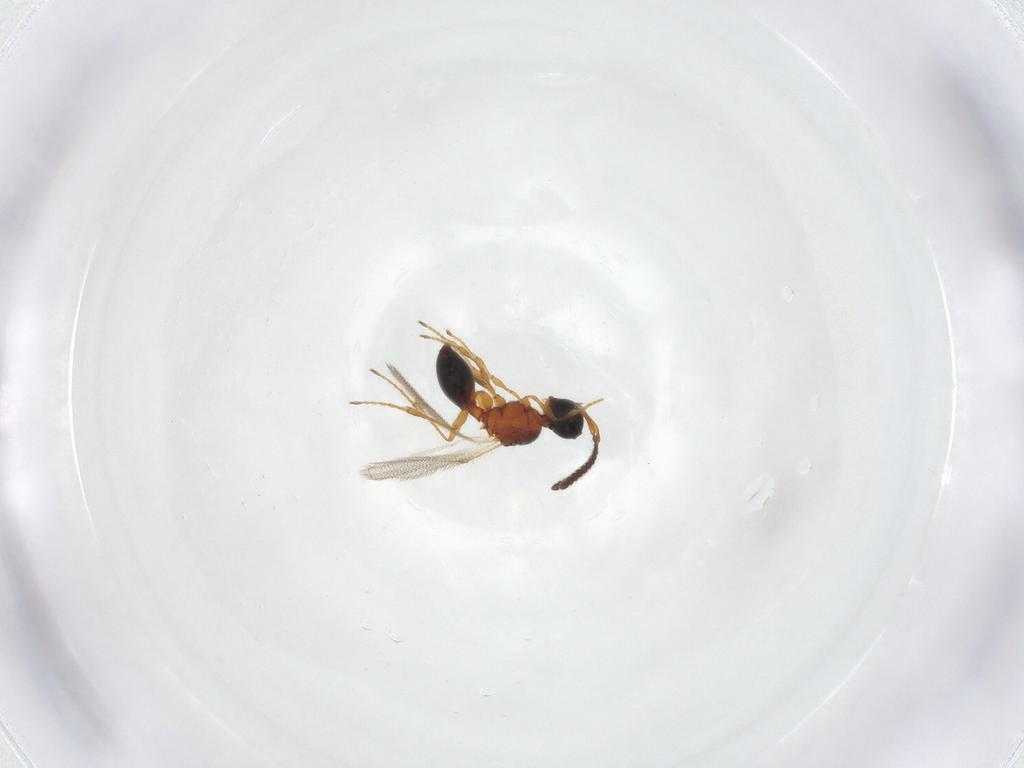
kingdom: Animalia
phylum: Arthropoda
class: Insecta
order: Hymenoptera
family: Diapriidae
